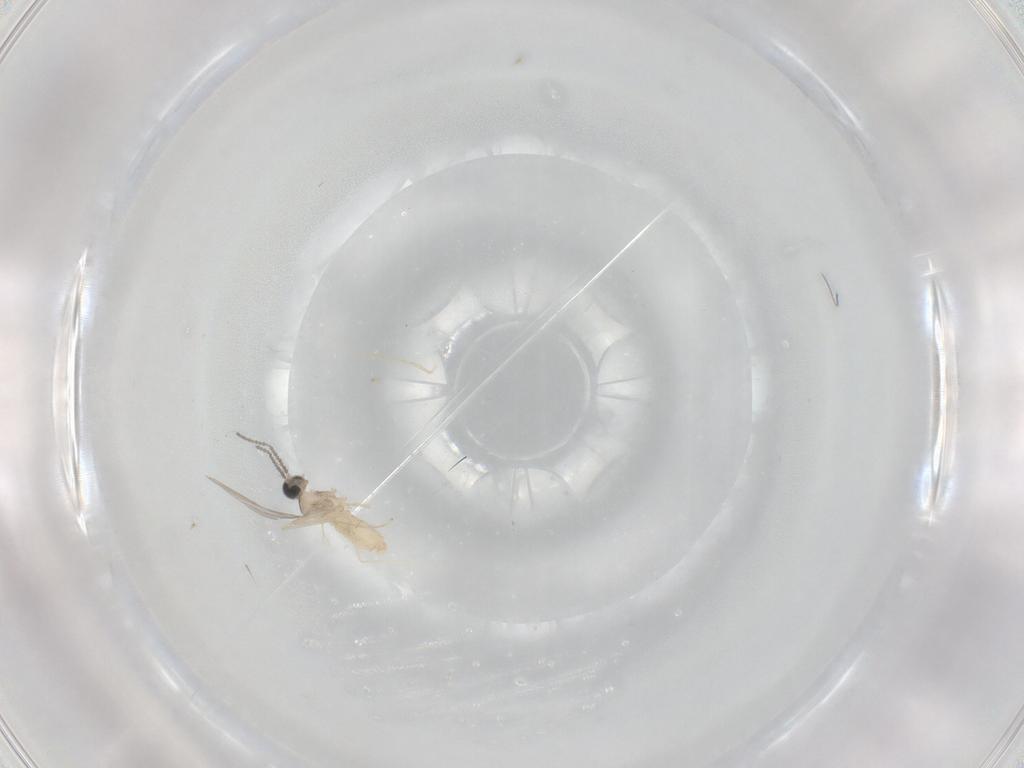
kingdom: Animalia
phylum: Arthropoda
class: Insecta
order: Diptera
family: Cecidomyiidae
